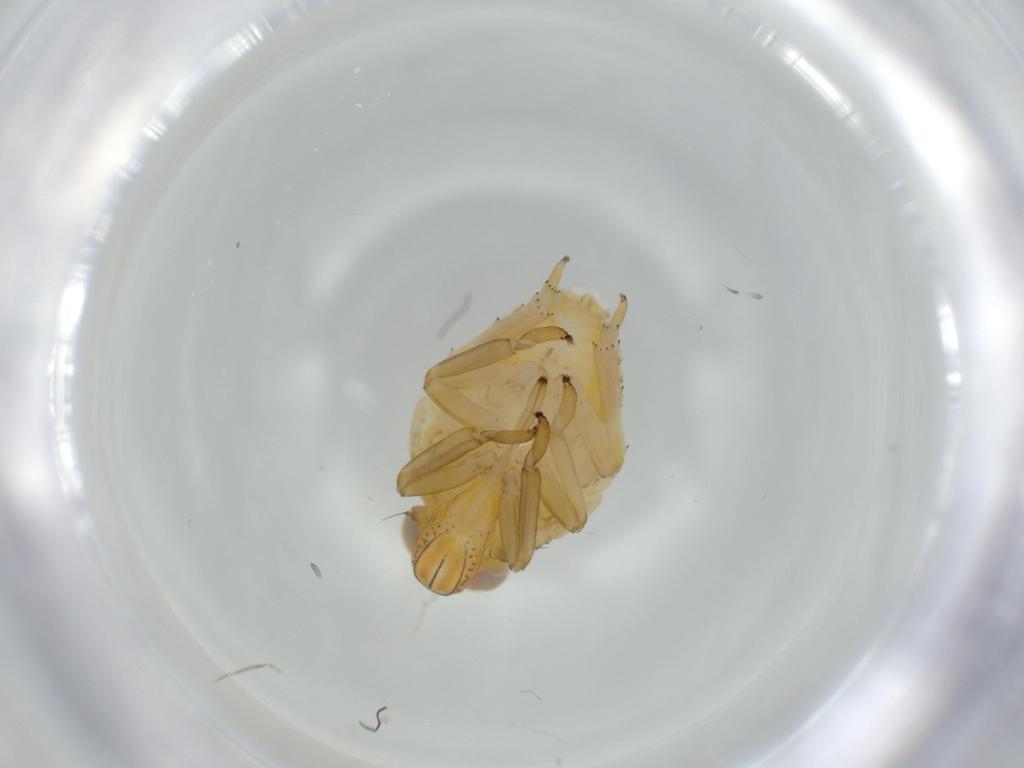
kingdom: Animalia
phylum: Arthropoda
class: Insecta
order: Hemiptera
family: Issidae
